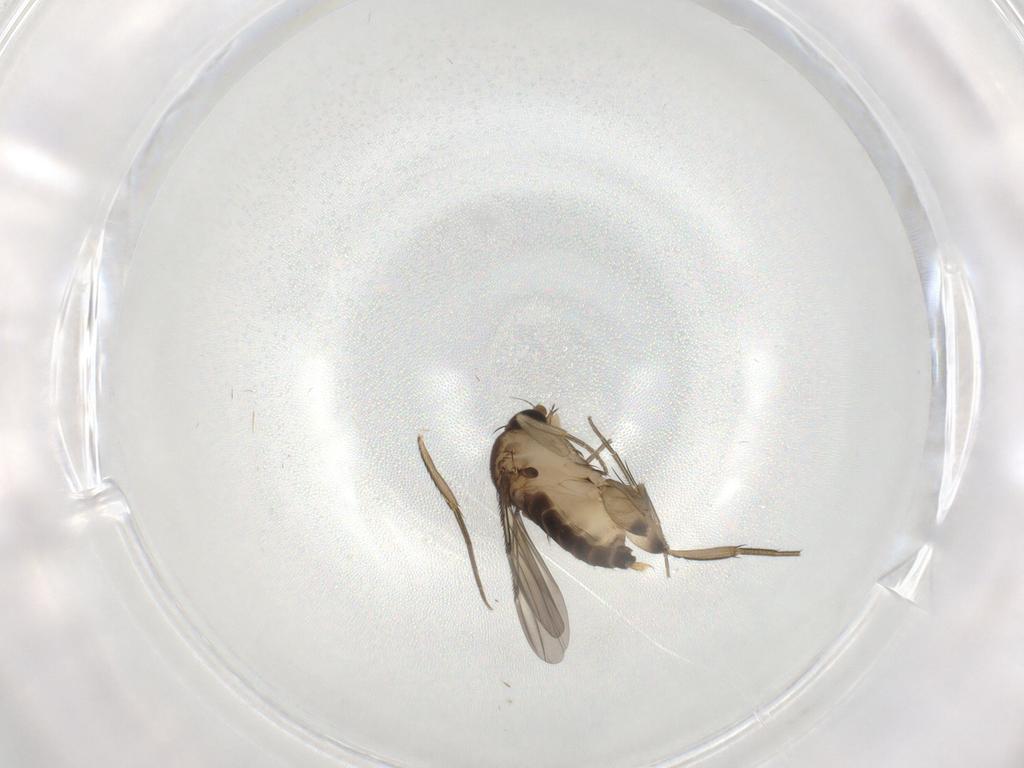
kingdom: Animalia
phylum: Arthropoda
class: Insecta
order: Diptera
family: Phoridae
